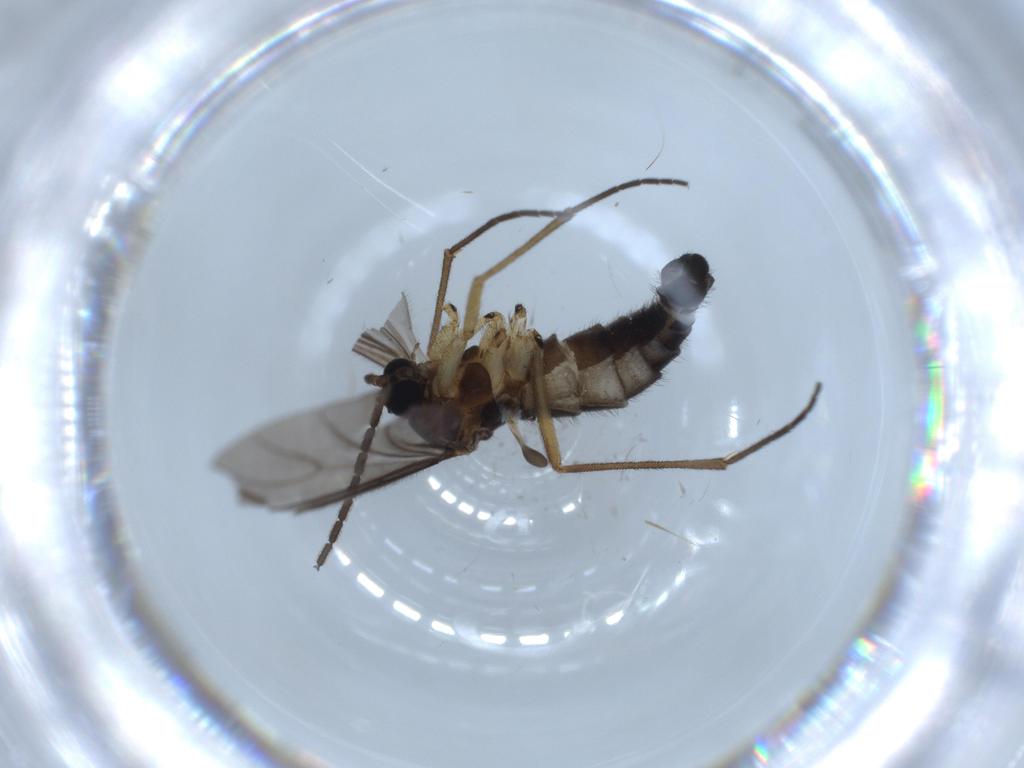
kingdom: Animalia
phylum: Arthropoda
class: Insecta
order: Diptera
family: Sciaridae
